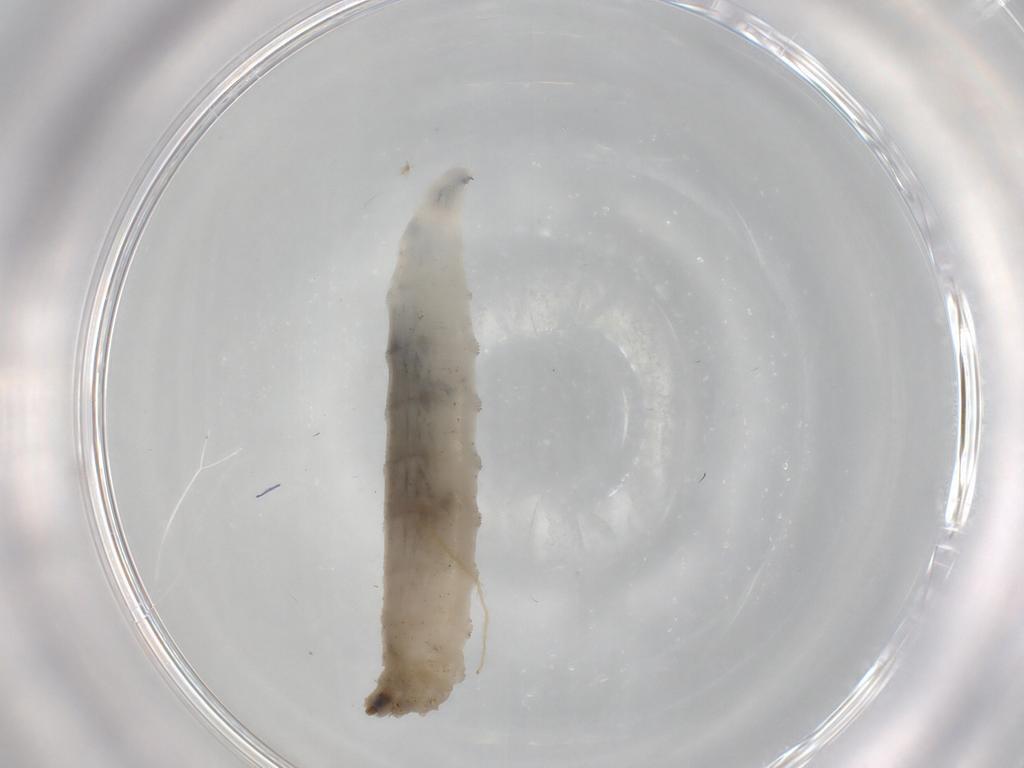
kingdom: Animalia
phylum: Arthropoda
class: Insecta
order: Diptera
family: Drosophilidae
